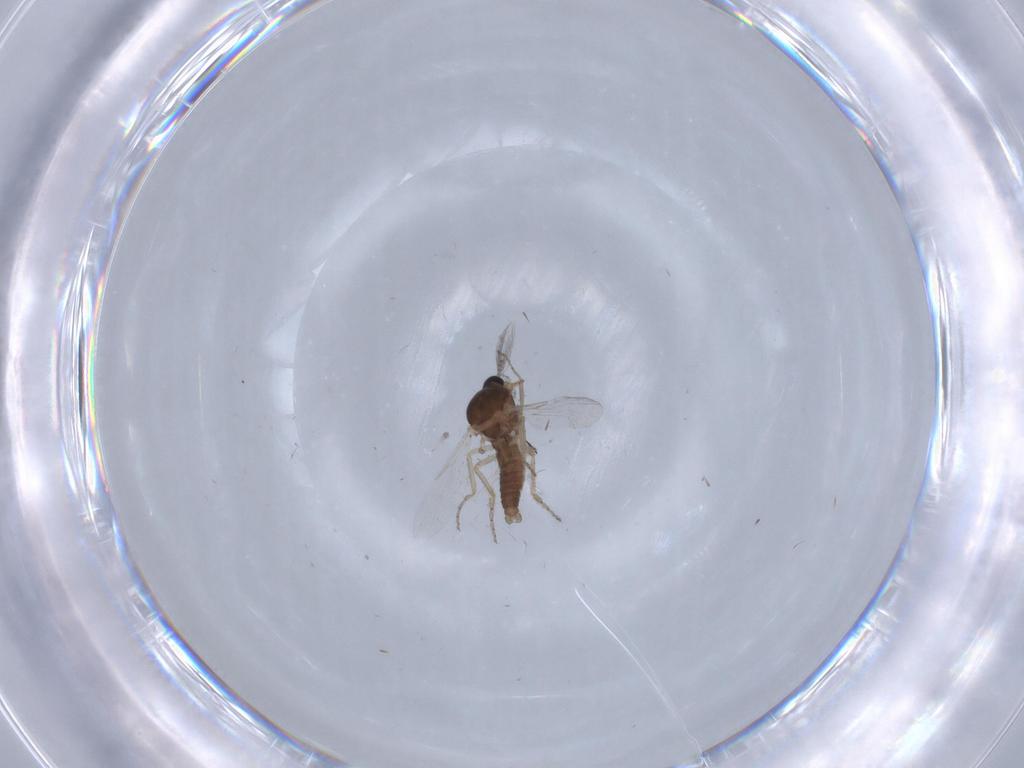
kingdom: Animalia
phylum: Arthropoda
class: Insecta
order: Diptera
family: Ceratopogonidae
